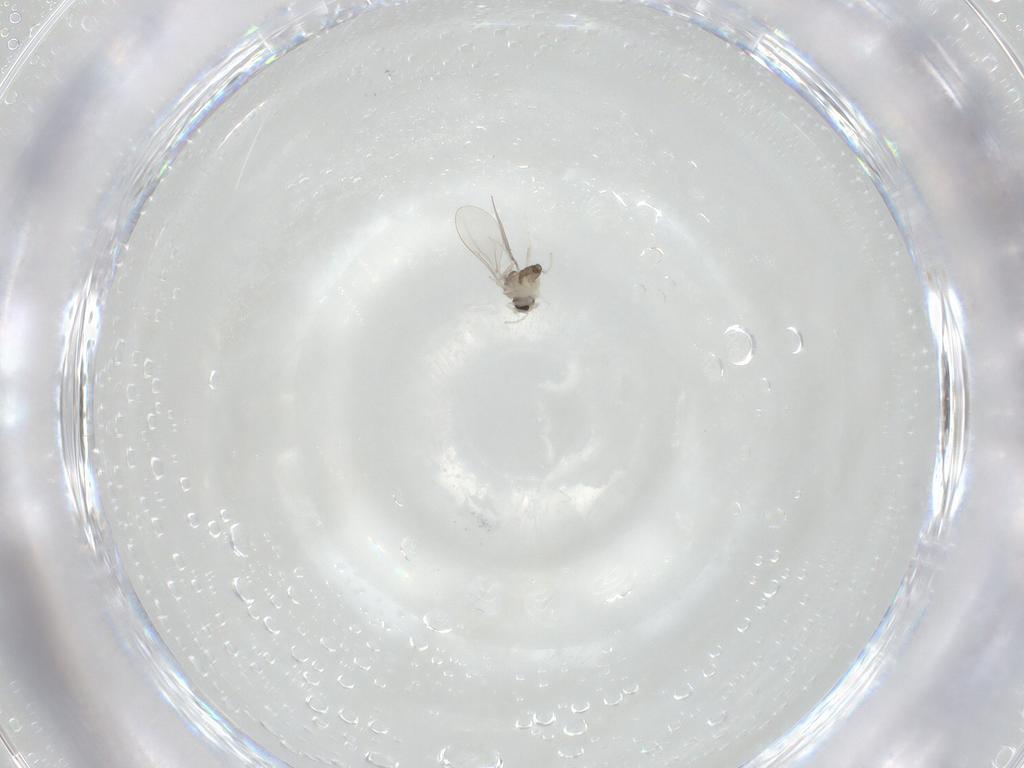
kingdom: Animalia
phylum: Arthropoda
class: Insecta
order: Diptera
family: Cecidomyiidae
